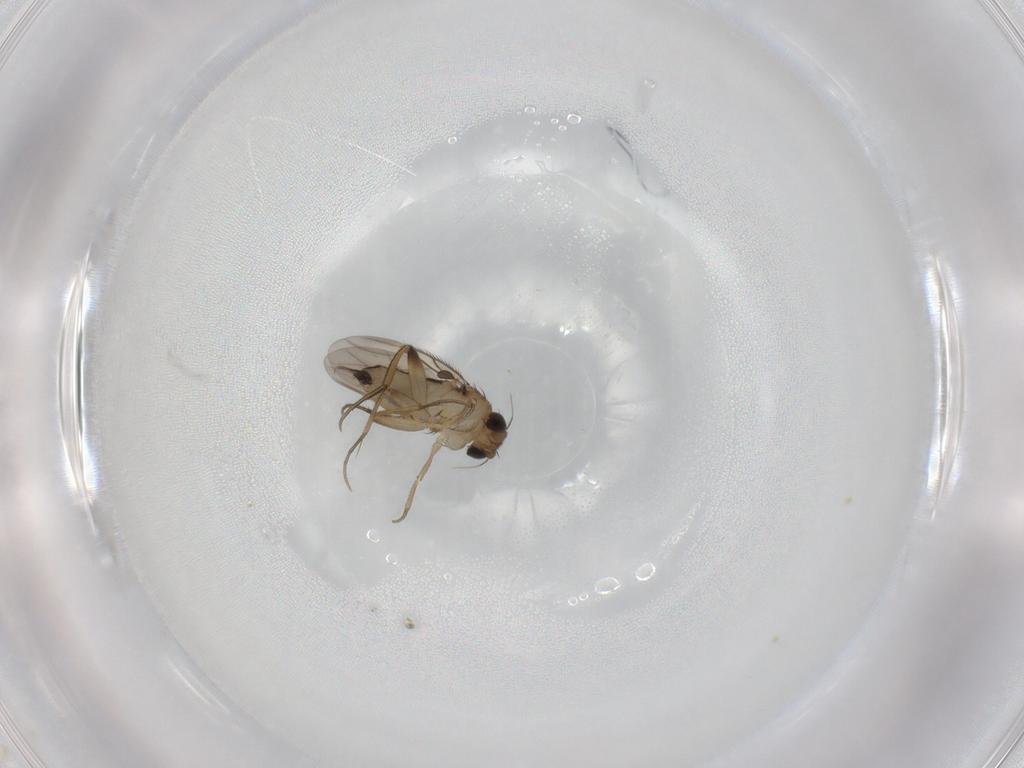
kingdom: Animalia
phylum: Arthropoda
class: Insecta
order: Diptera
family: Phoridae
